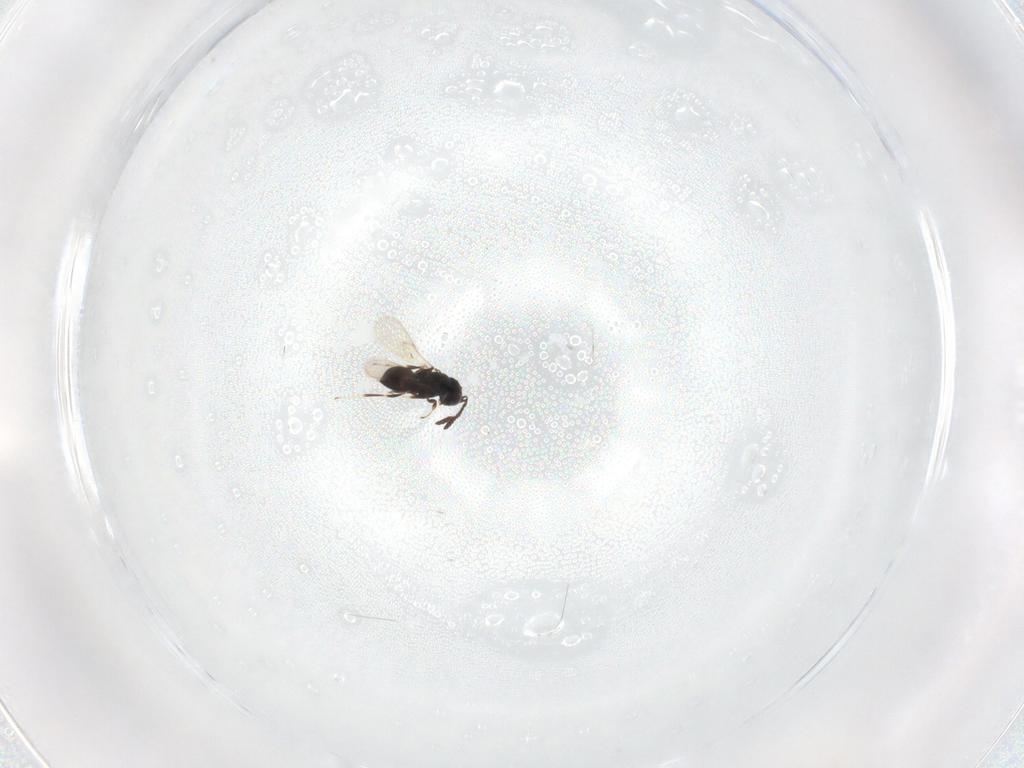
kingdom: Animalia
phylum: Arthropoda
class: Insecta
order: Hymenoptera
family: Scelionidae
